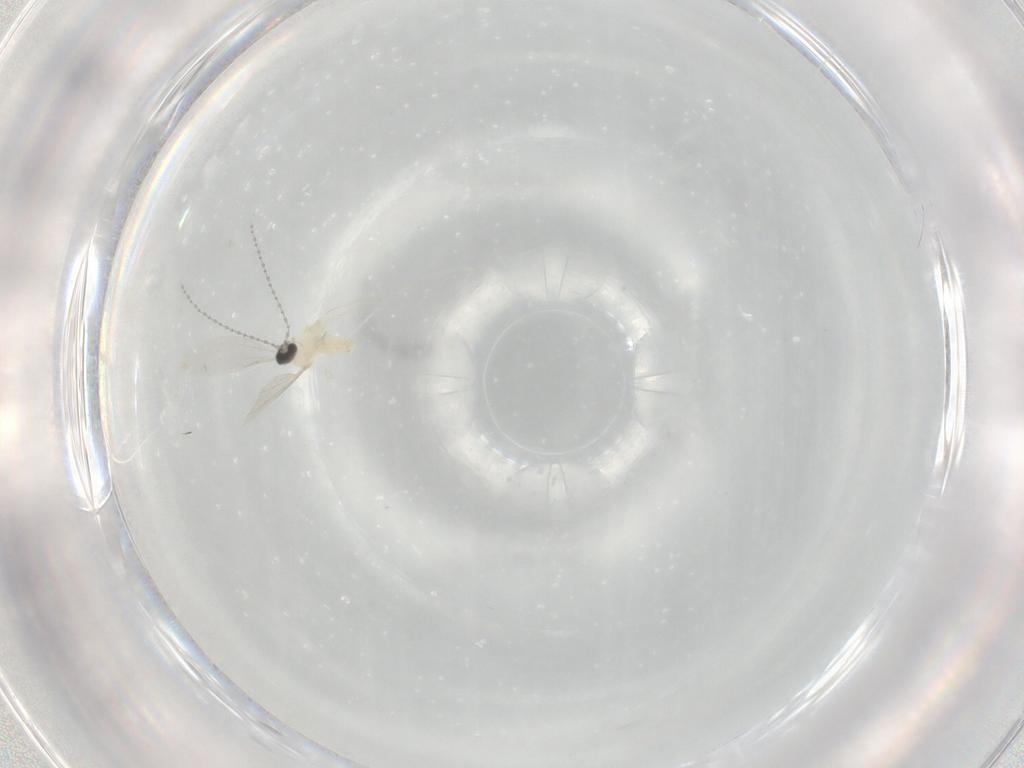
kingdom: Animalia
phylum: Arthropoda
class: Insecta
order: Diptera
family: Cecidomyiidae
